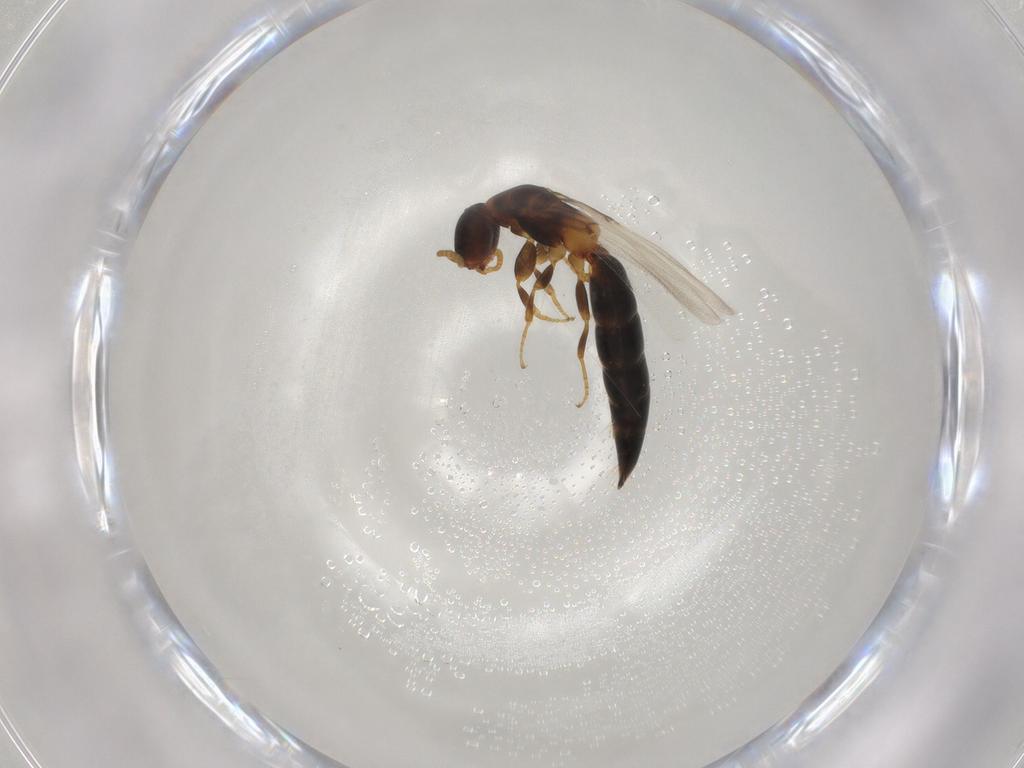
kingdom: Animalia
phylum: Arthropoda
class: Insecta
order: Hymenoptera
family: Bethylidae
